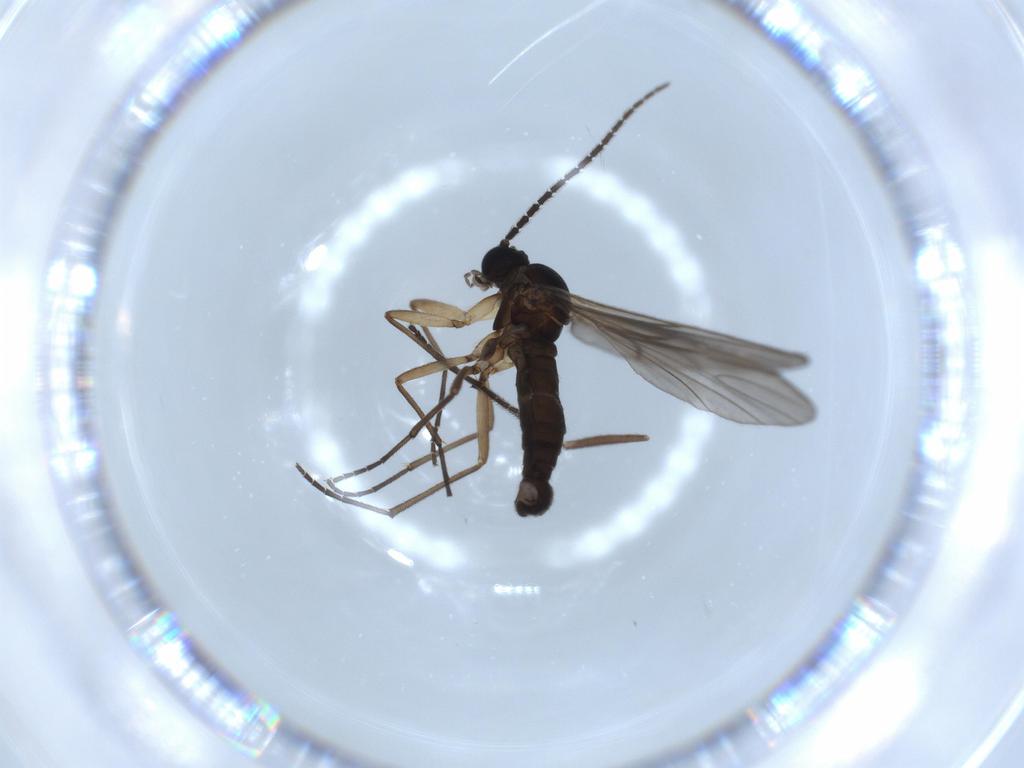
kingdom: Animalia
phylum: Arthropoda
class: Insecta
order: Diptera
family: Sciaridae
